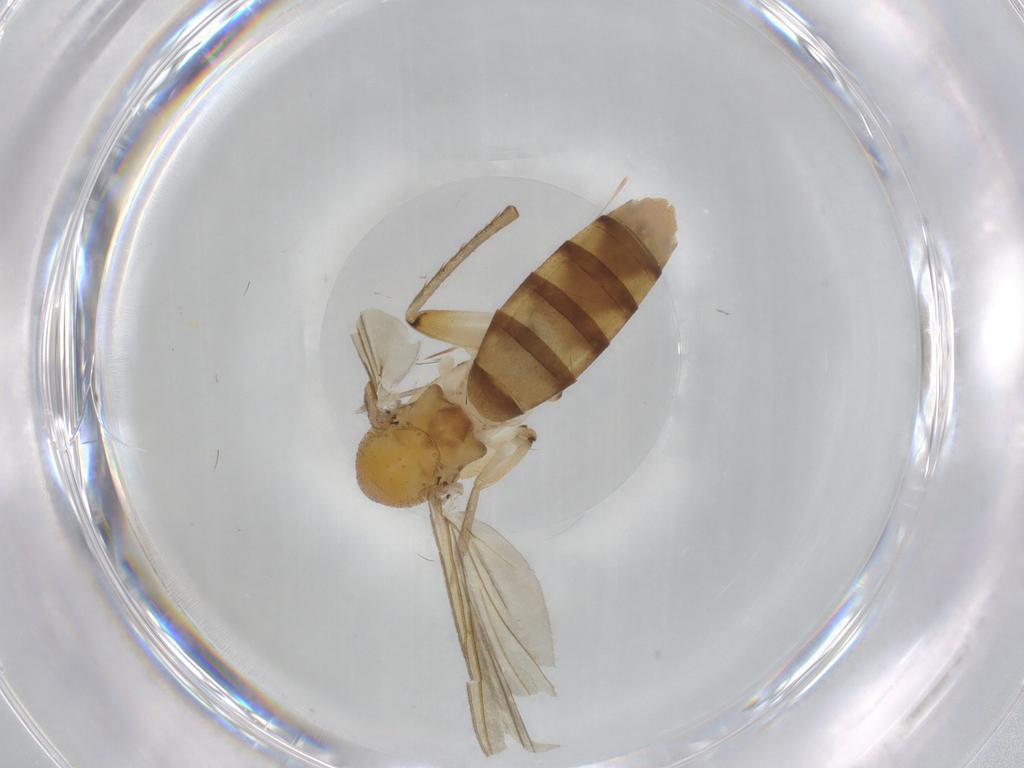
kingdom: Animalia
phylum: Arthropoda
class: Insecta
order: Diptera
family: Mycetophilidae
